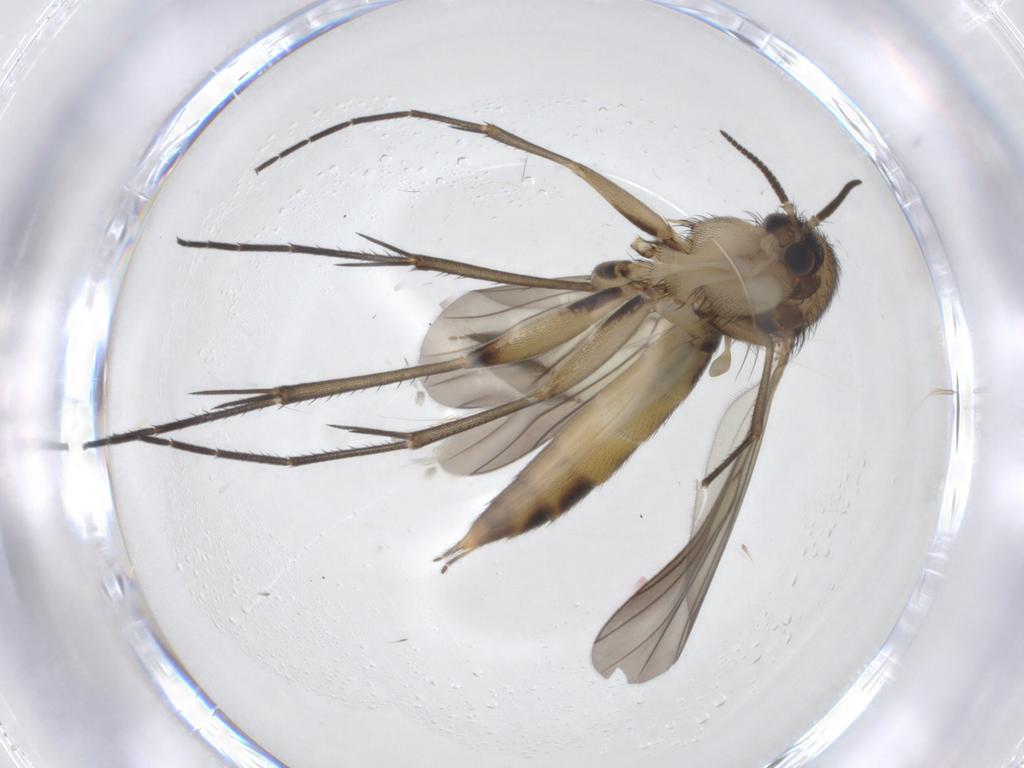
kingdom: Animalia
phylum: Arthropoda
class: Insecta
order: Diptera
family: Mycetophilidae
